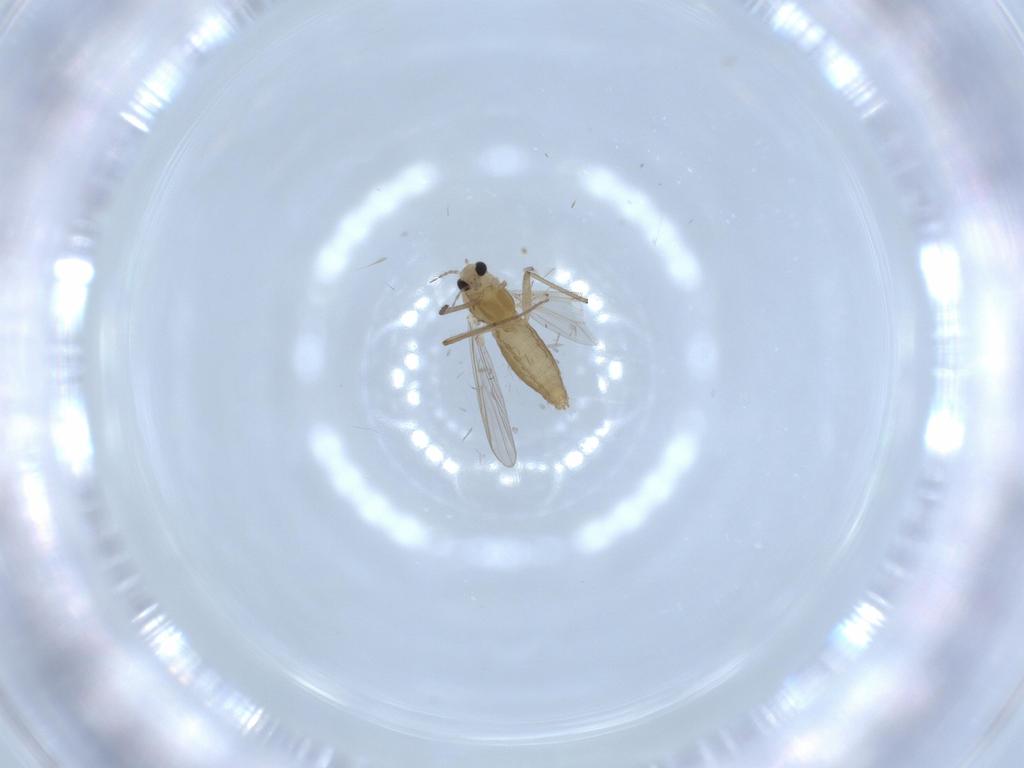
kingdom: Animalia
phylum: Arthropoda
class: Insecta
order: Diptera
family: Chironomidae
